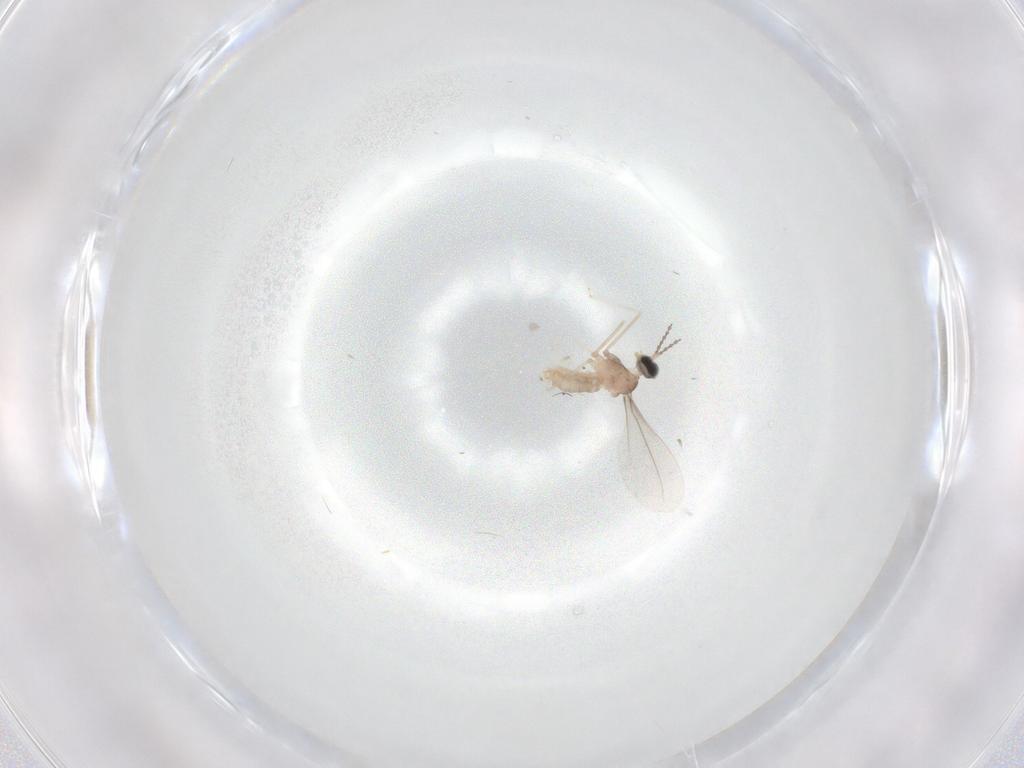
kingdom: Animalia
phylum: Arthropoda
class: Insecta
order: Diptera
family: Cecidomyiidae
